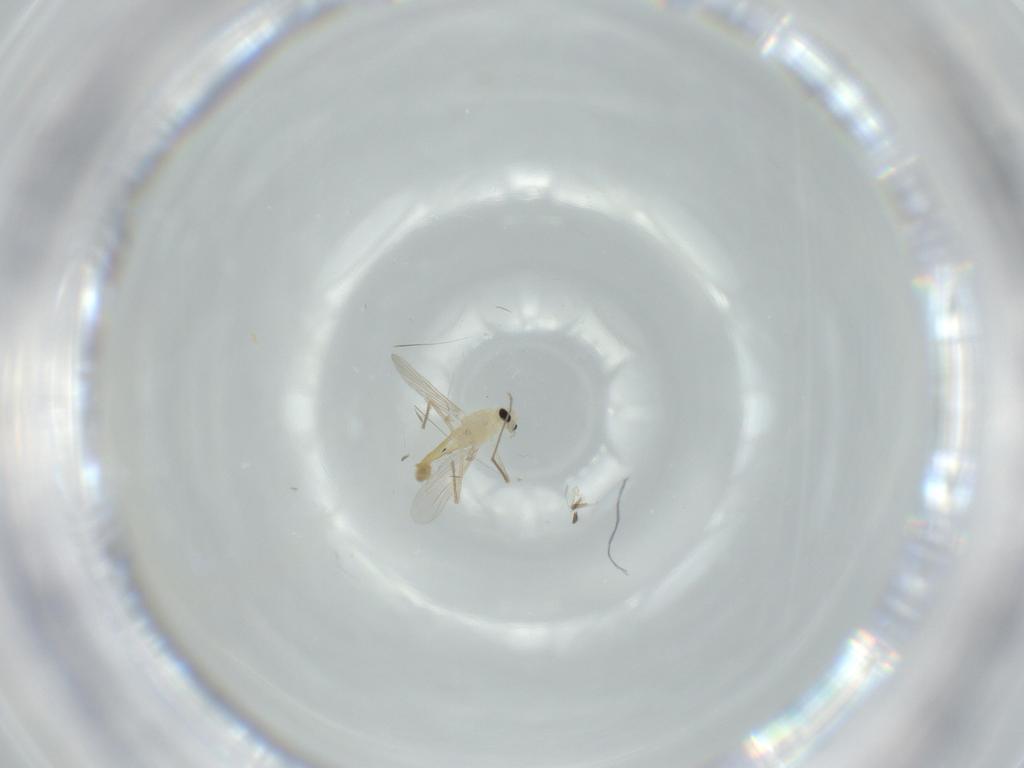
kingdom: Animalia
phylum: Arthropoda
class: Insecta
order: Diptera
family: Chironomidae
